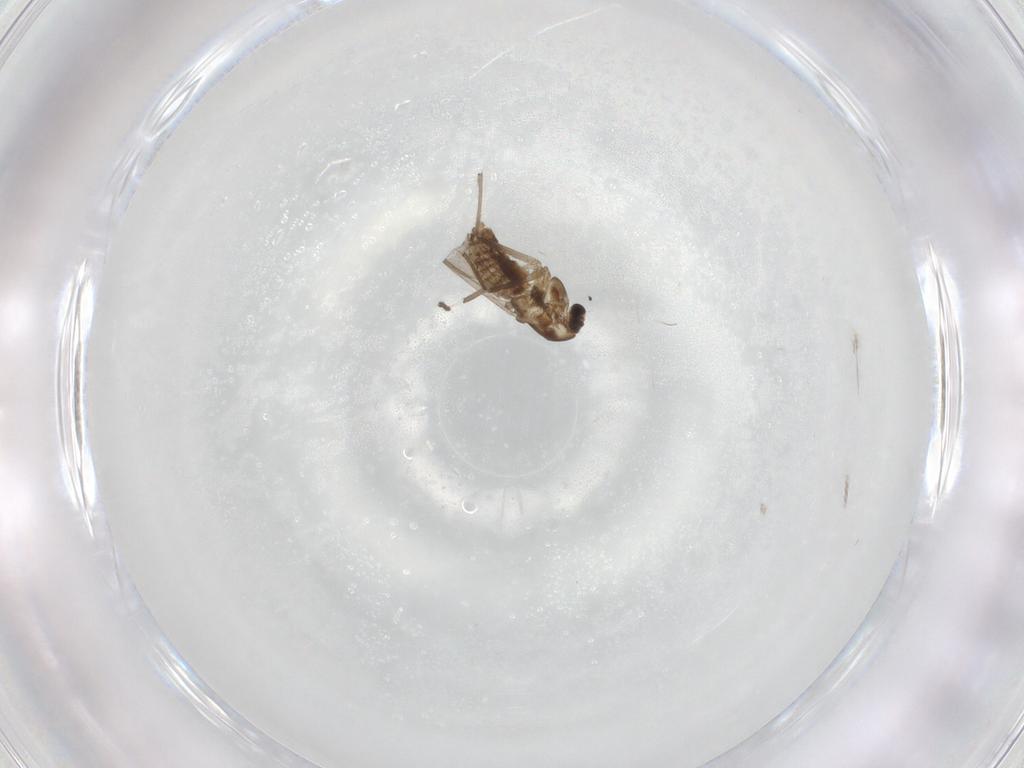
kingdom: Animalia
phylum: Arthropoda
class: Insecta
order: Diptera
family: Chironomidae
